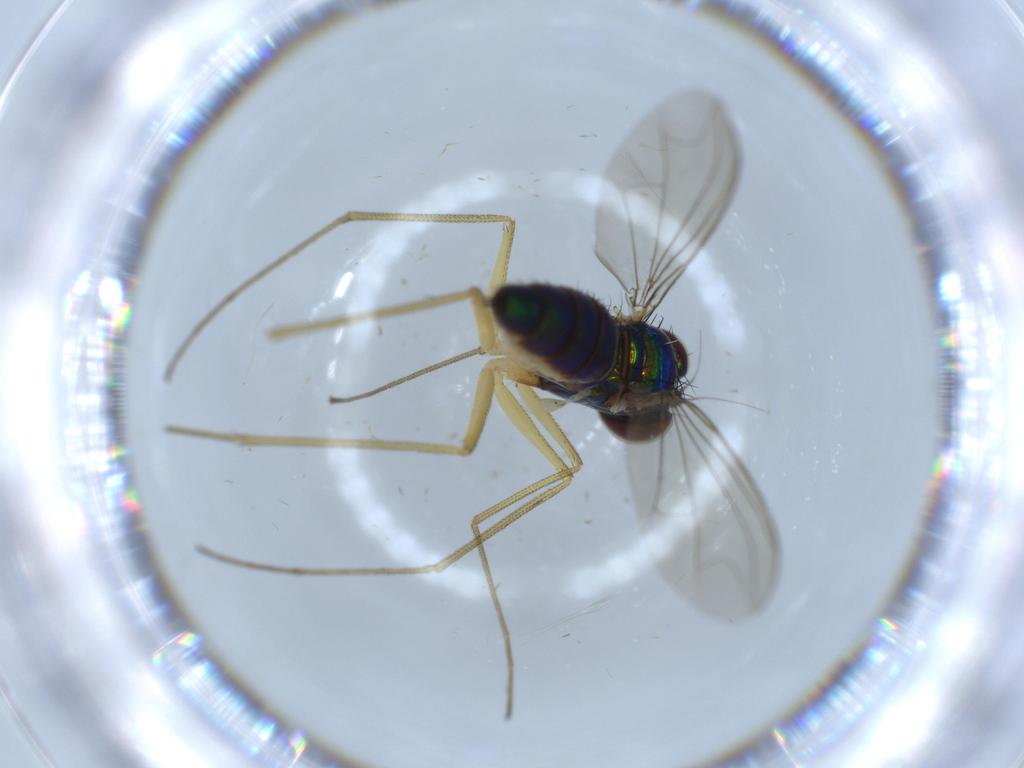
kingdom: Animalia
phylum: Arthropoda
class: Insecta
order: Diptera
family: Dolichopodidae
